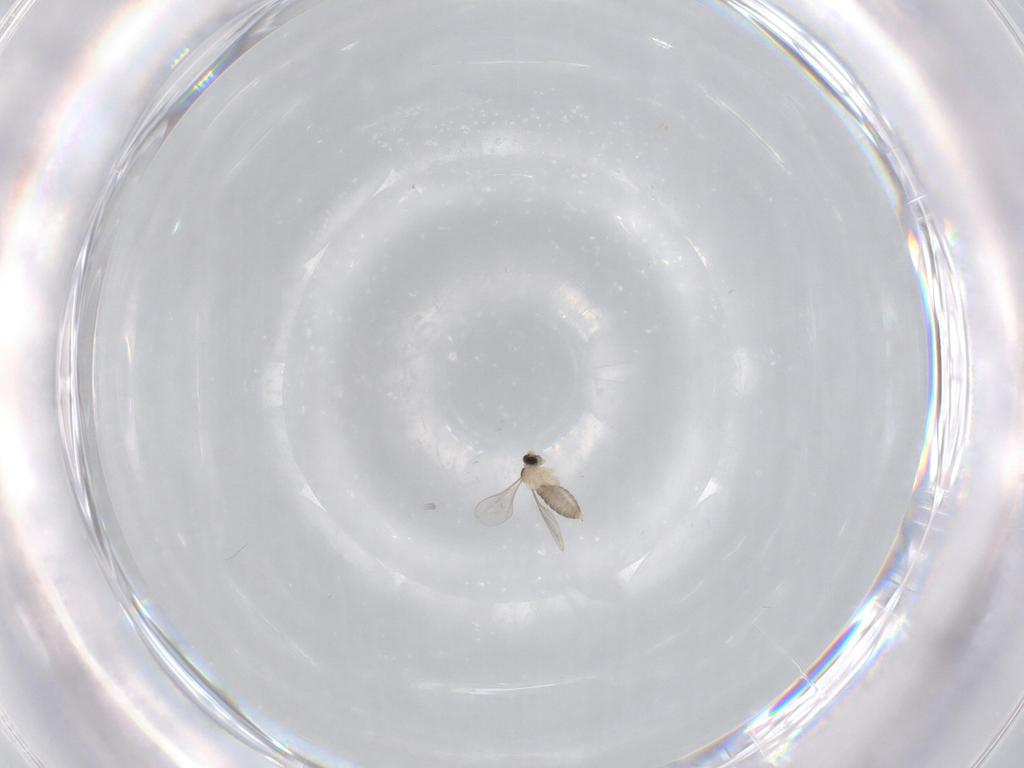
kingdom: Animalia
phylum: Arthropoda
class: Insecta
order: Diptera
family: Cecidomyiidae
